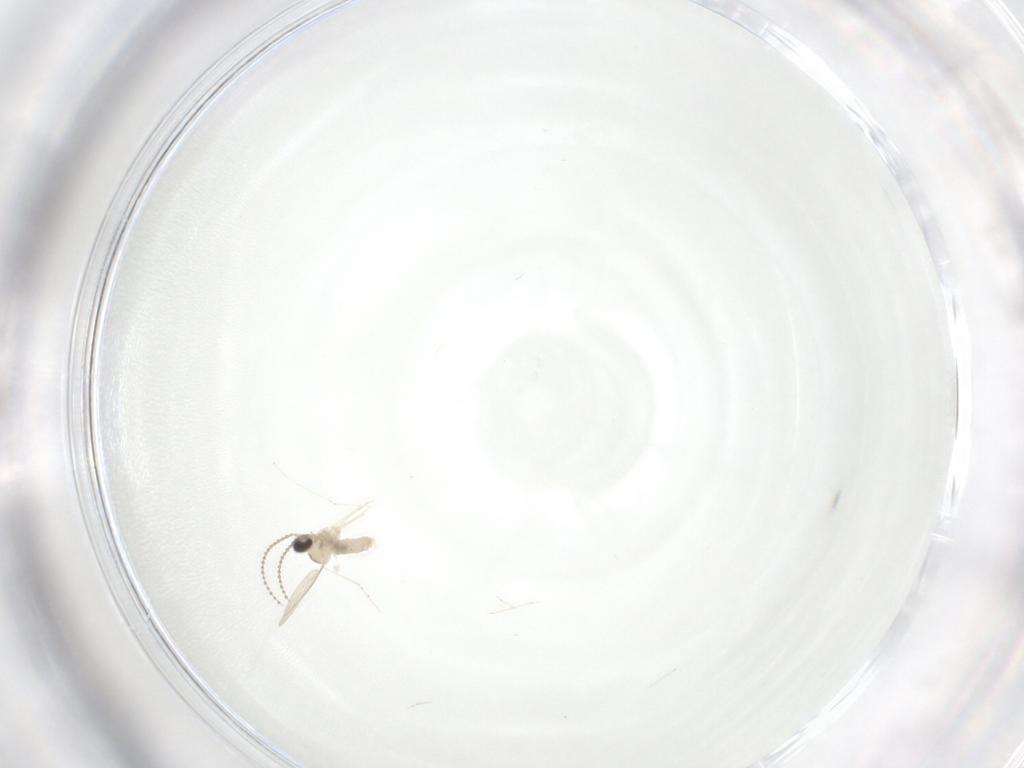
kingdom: Animalia
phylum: Arthropoda
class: Insecta
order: Diptera
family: Cecidomyiidae
